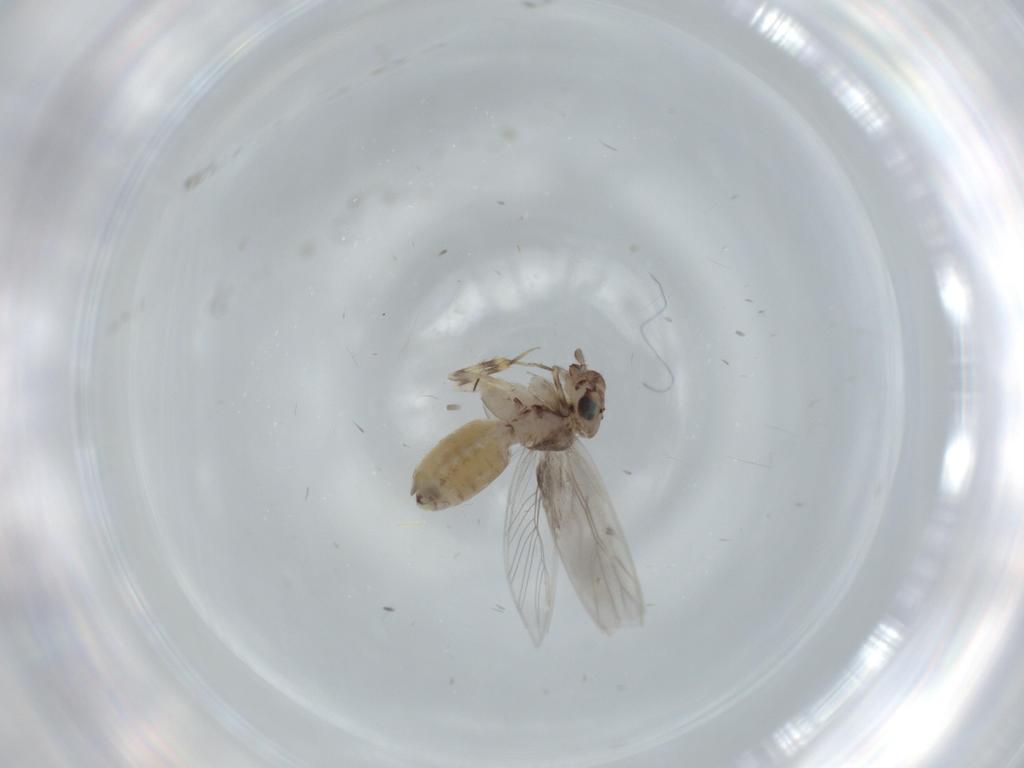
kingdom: Animalia
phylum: Arthropoda
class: Insecta
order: Psocodea
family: Lepidopsocidae
